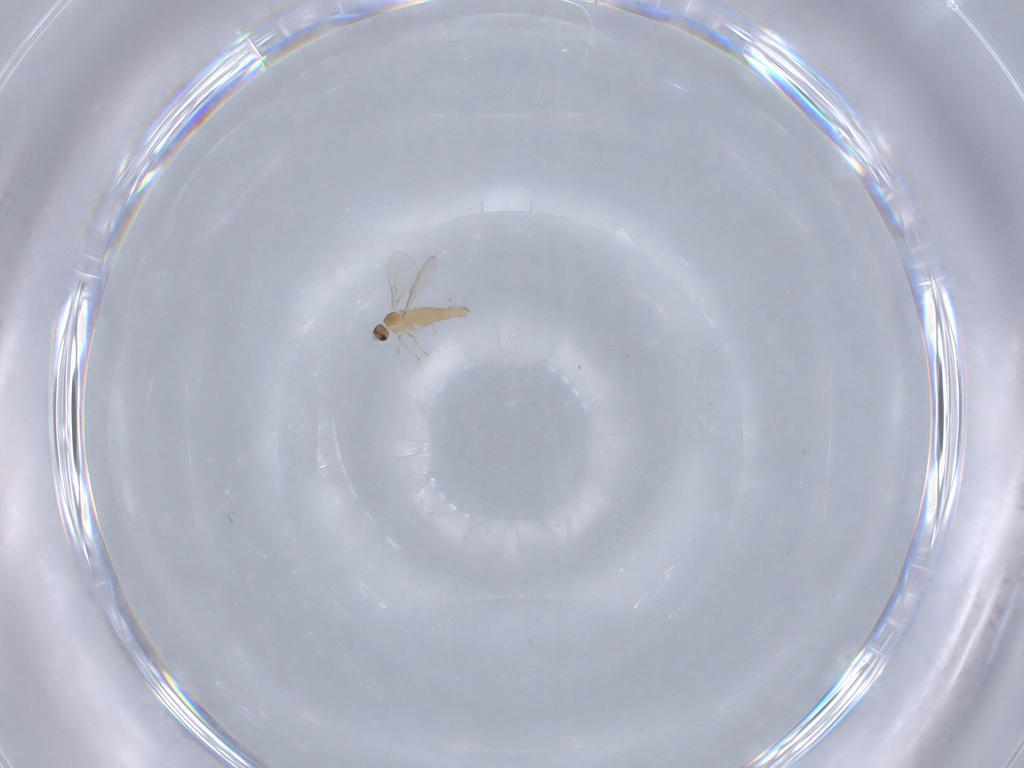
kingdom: Animalia
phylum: Arthropoda
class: Insecta
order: Diptera
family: Cecidomyiidae
